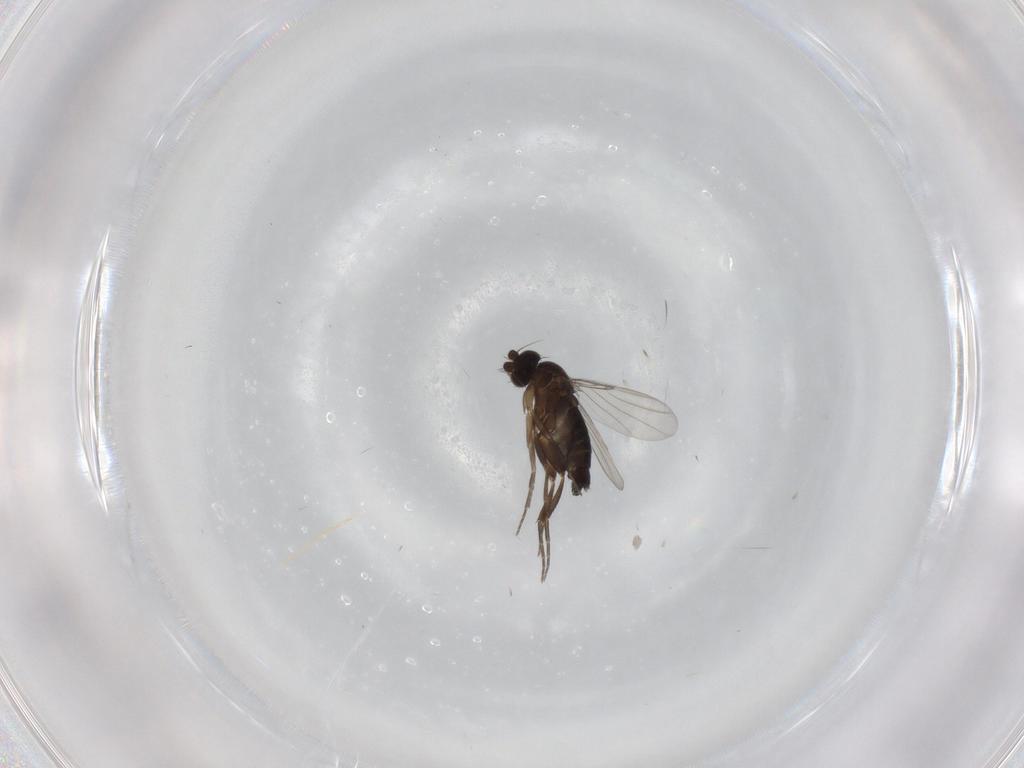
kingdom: Animalia
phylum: Arthropoda
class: Insecta
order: Diptera
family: Phoridae
